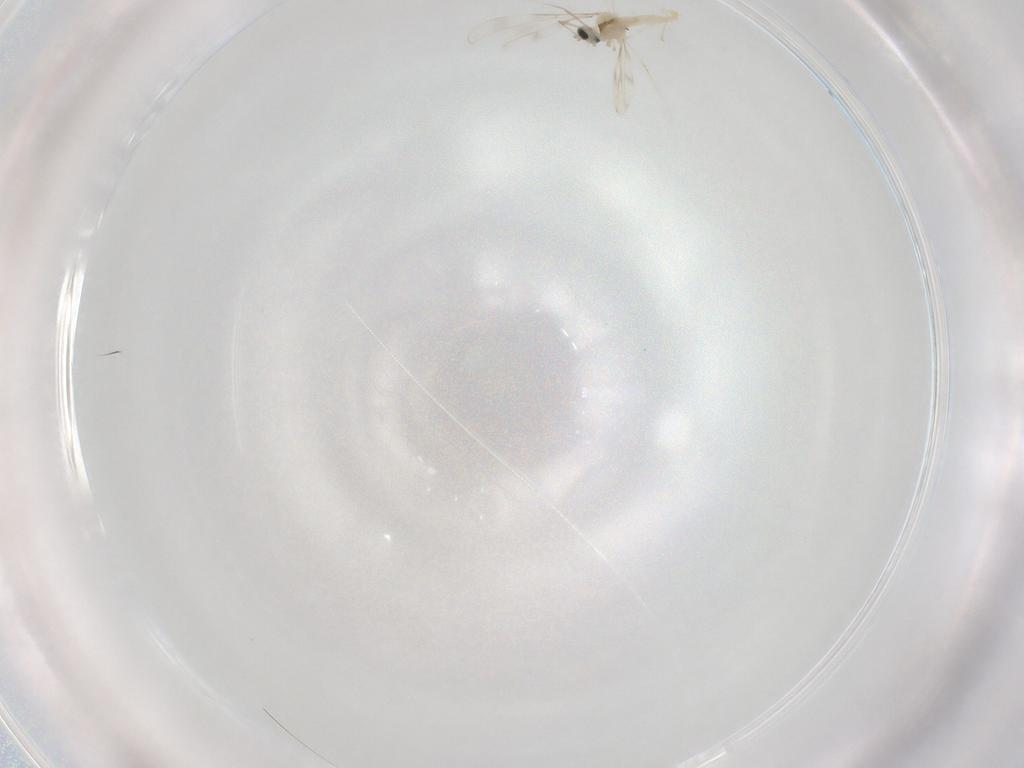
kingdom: Animalia
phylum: Arthropoda
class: Insecta
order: Diptera
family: Cecidomyiidae
